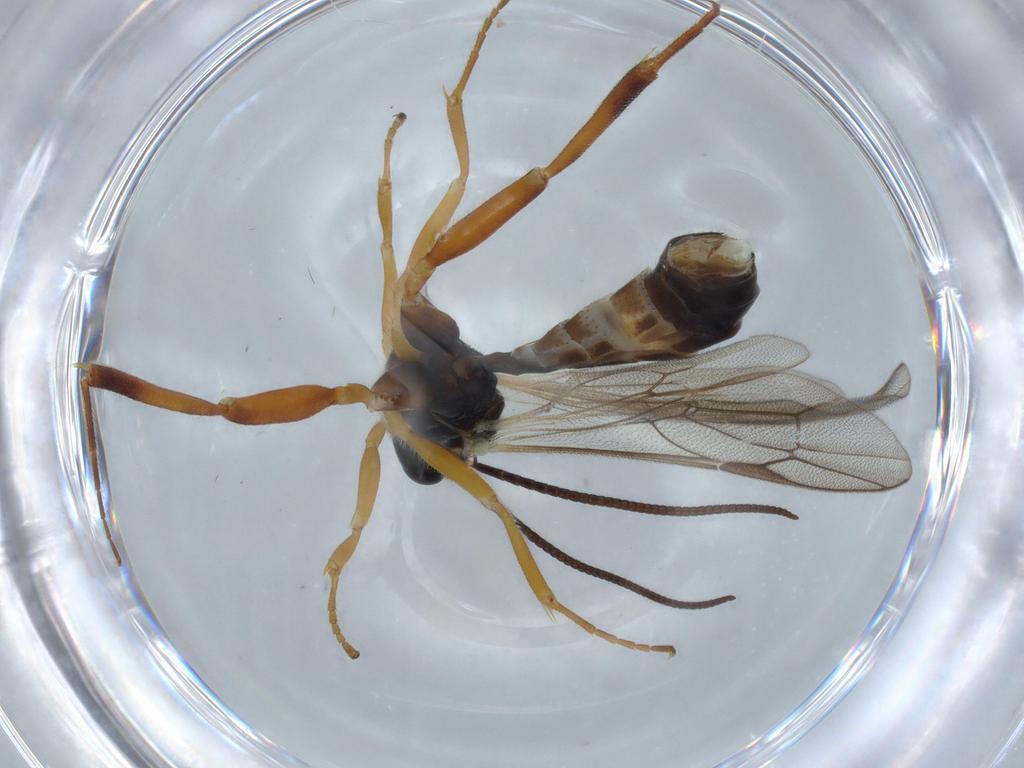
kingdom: Animalia
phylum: Arthropoda
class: Insecta
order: Hymenoptera
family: Ichneumonidae
